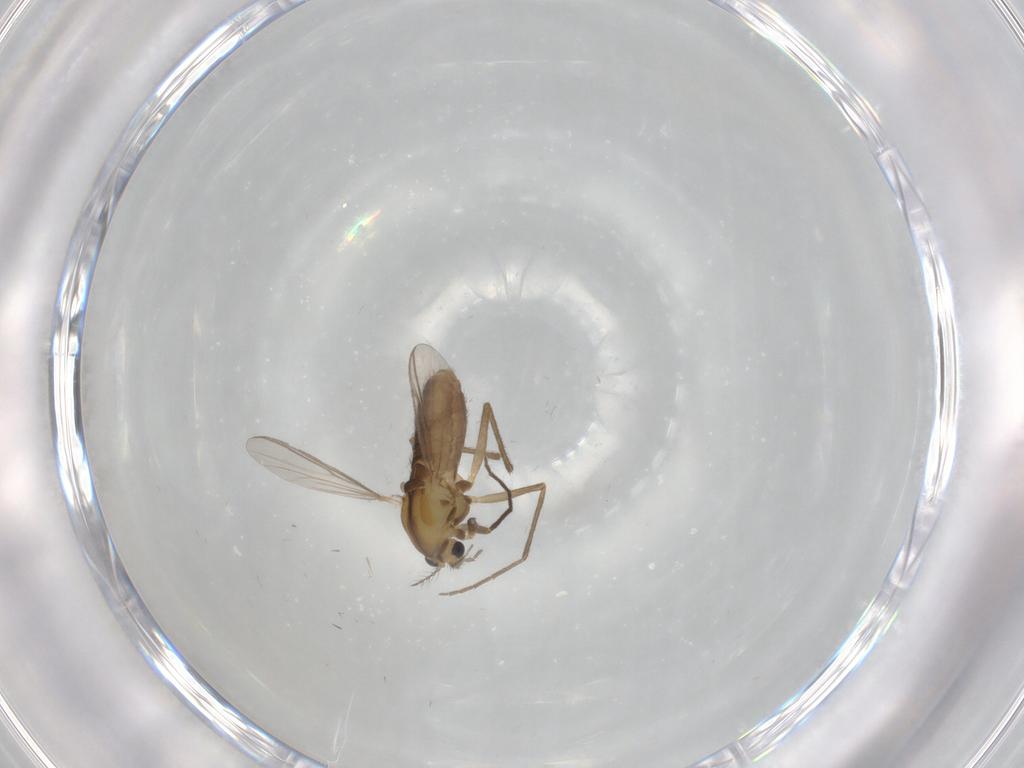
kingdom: Animalia
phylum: Arthropoda
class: Insecta
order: Diptera
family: Chironomidae
